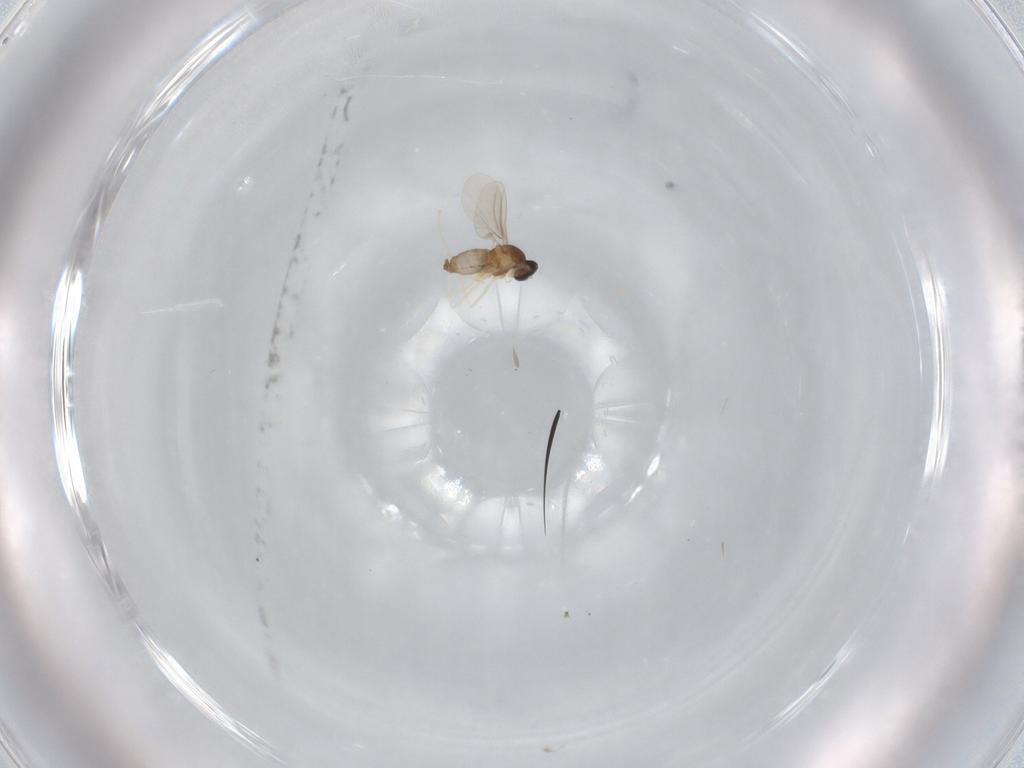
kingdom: Animalia
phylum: Arthropoda
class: Insecta
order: Diptera
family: Cecidomyiidae
